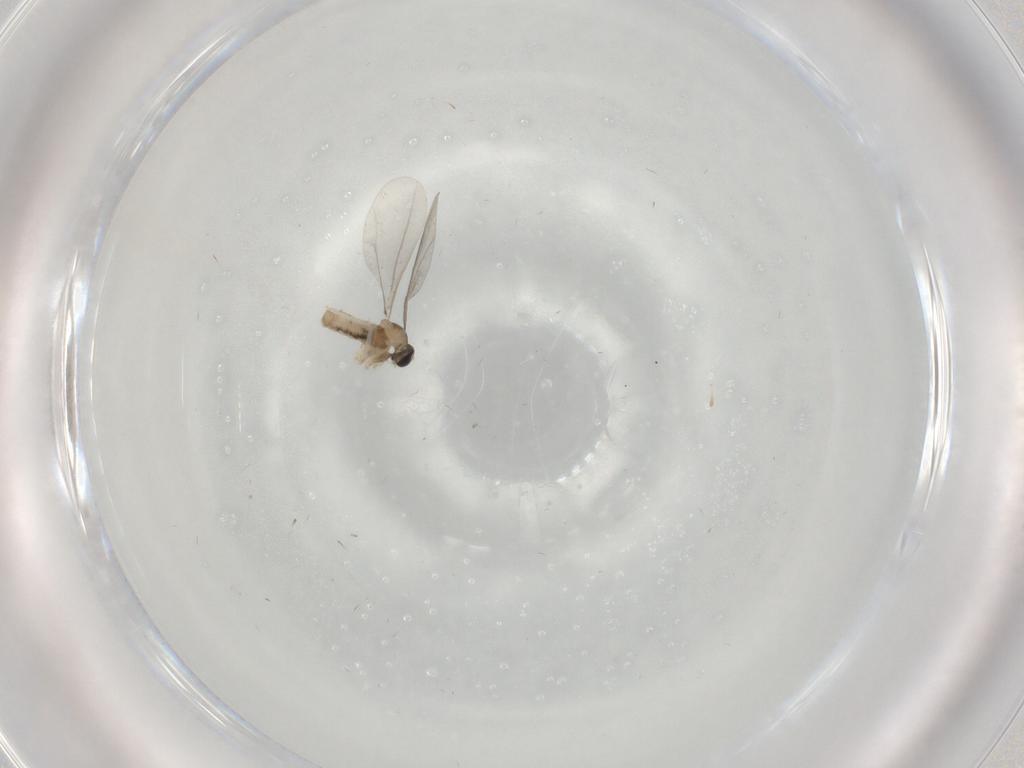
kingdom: Animalia
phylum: Arthropoda
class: Insecta
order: Diptera
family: Cecidomyiidae
